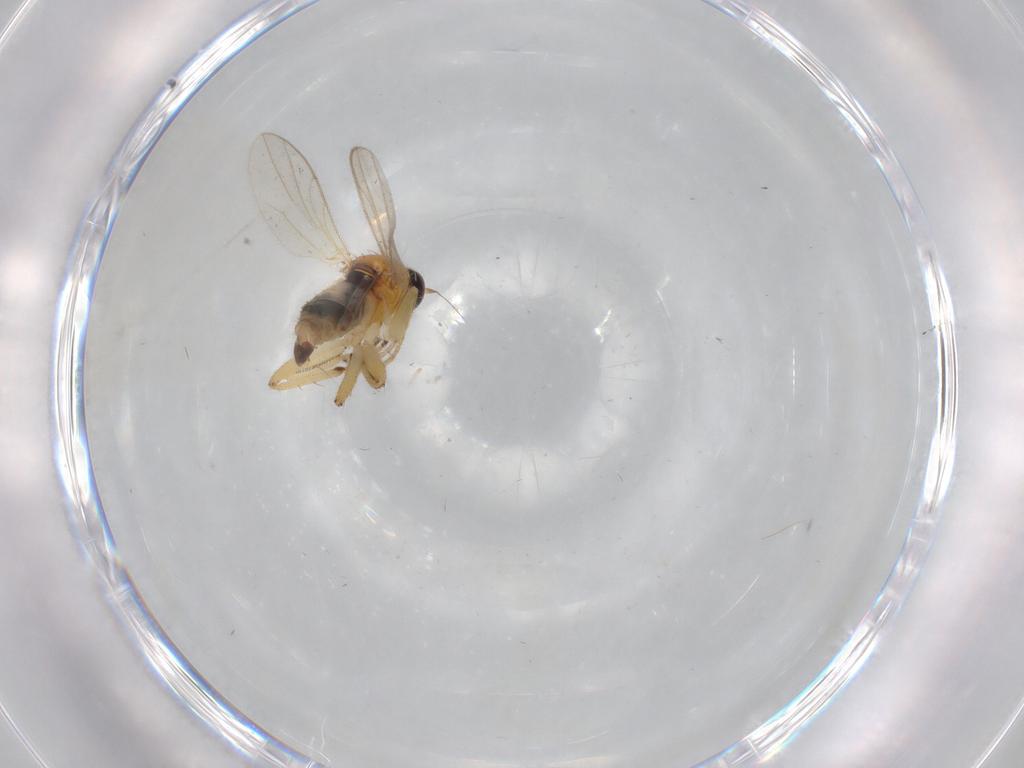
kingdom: Animalia
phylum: Arthropoda
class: Insecta
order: Diptera
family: Hybotidae
